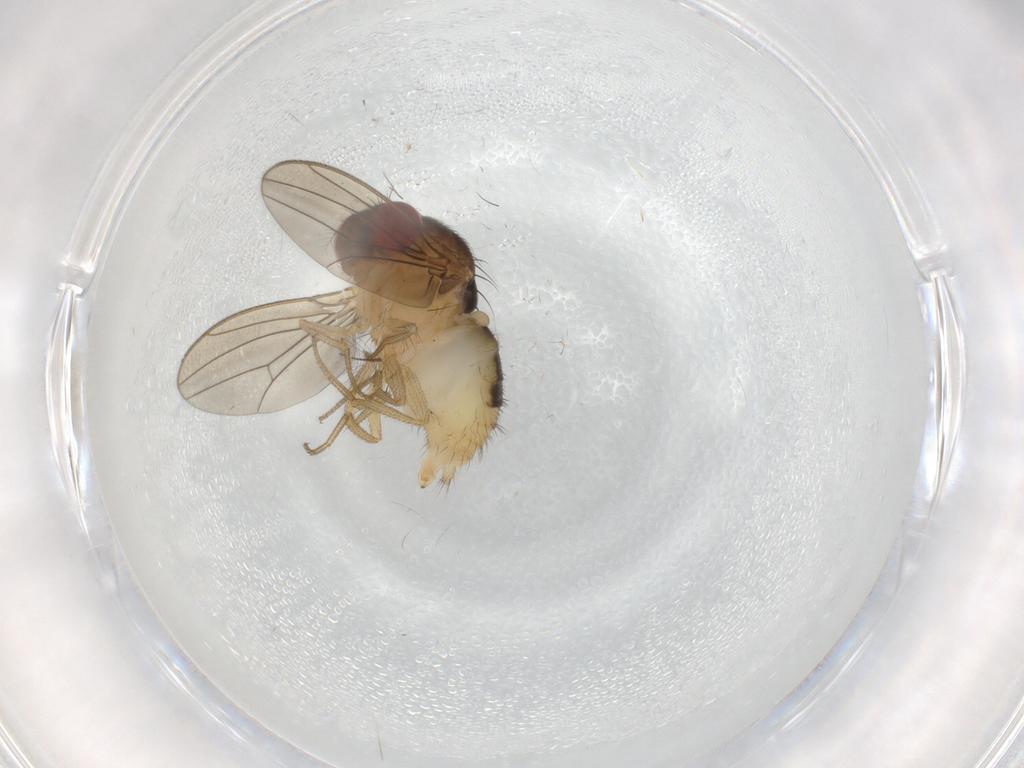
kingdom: Animalia
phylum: Arthropoda
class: Insecta
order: Diptera
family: Drosophilidae
